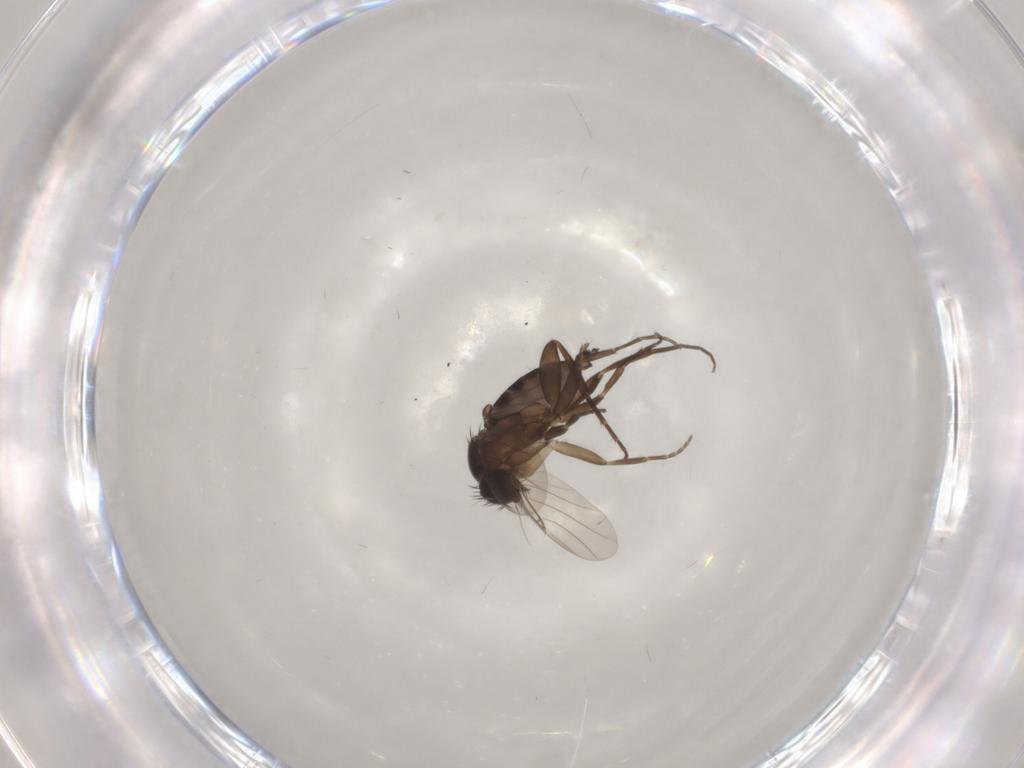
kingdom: Animalia
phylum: Arthropoda
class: Insecta
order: Diptera
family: Phoridae
